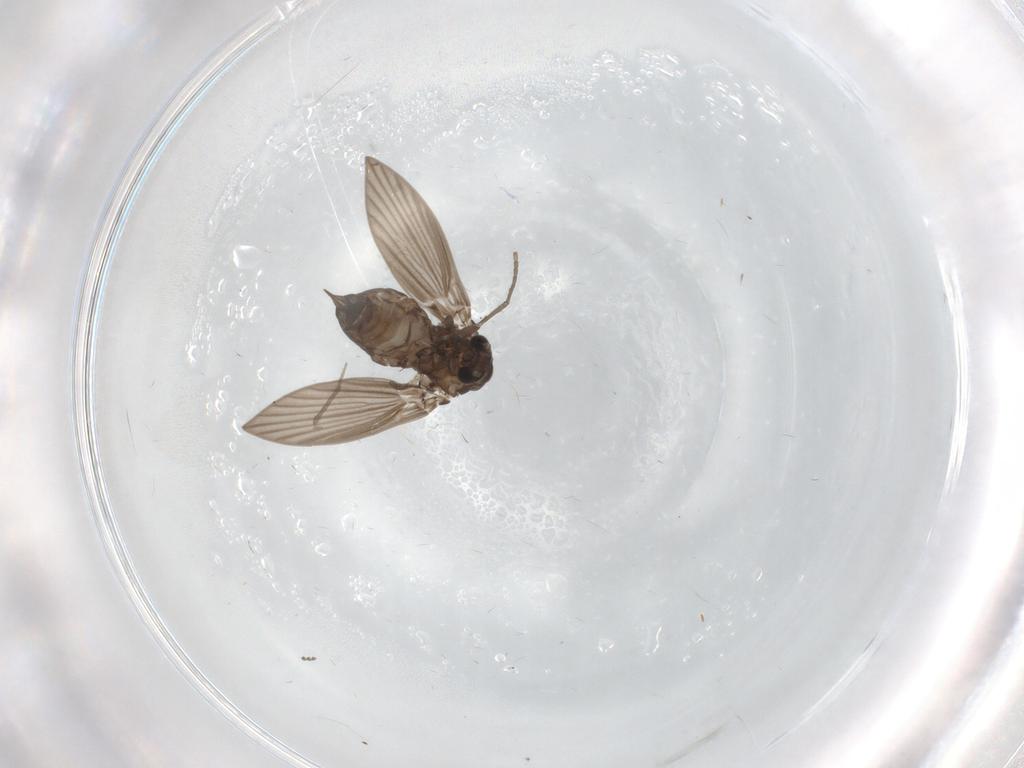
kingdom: Animalia
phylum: Arthropoda
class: Insecta
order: Diptera
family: Psychodidae
